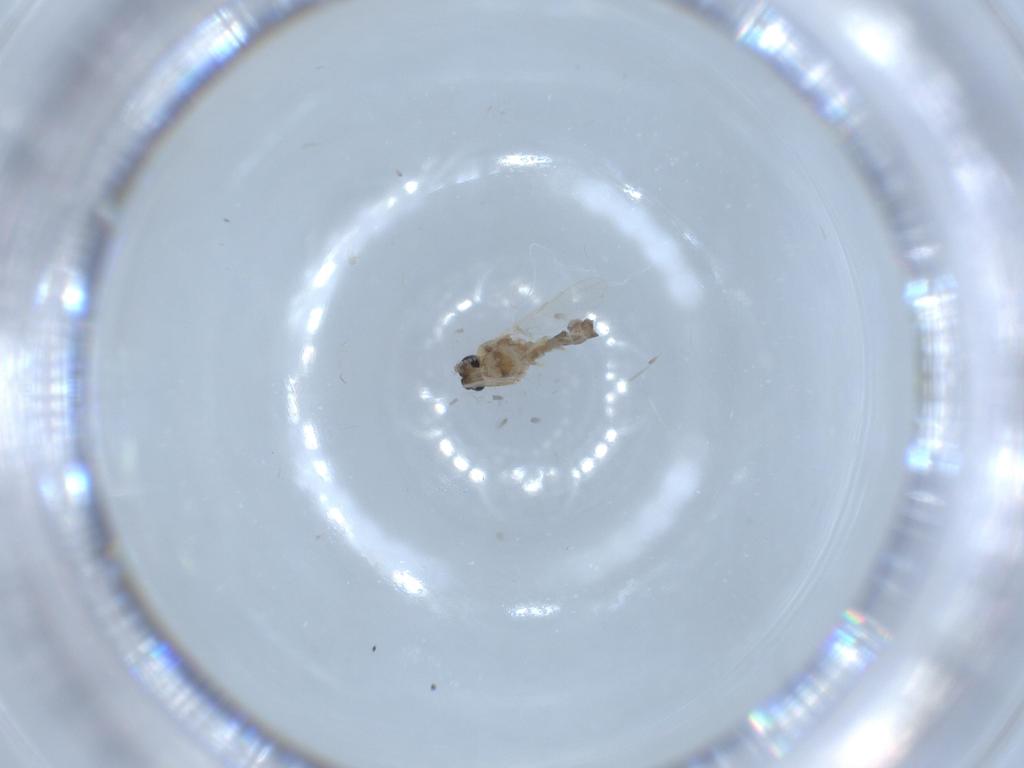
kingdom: Animalia
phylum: Arthropoda
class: Insecta
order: Diptera
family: Ceratopogonidae
